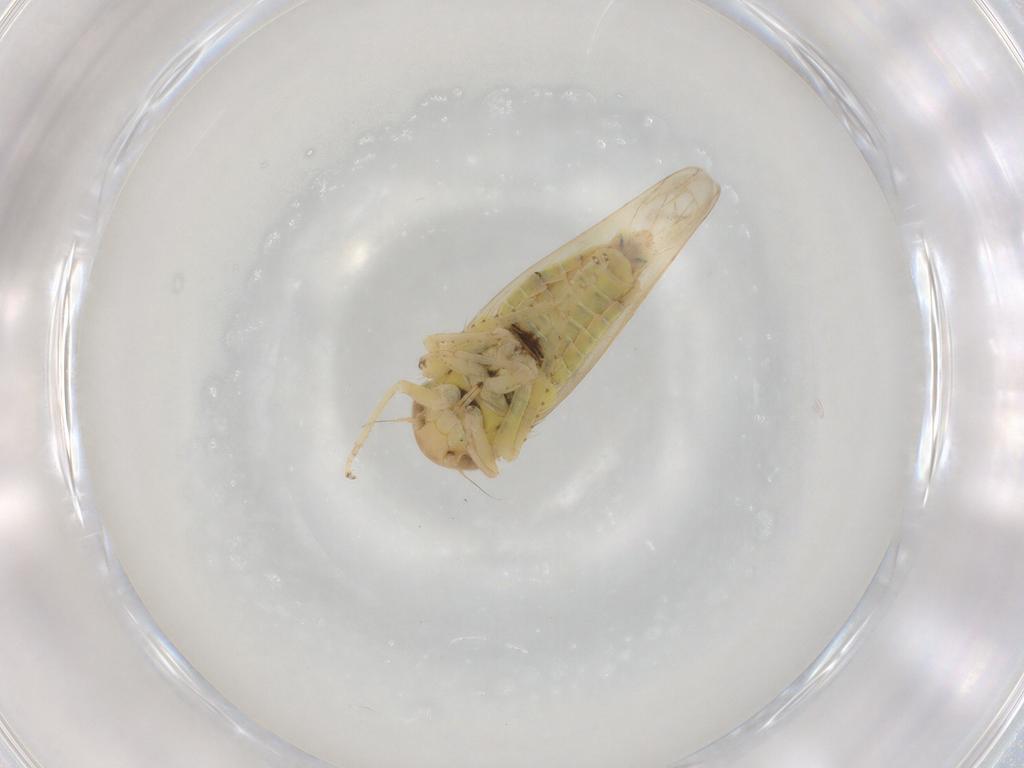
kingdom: Animalia
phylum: Arthropoda
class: Insecta
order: Hemiptera
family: Cicadellidae
